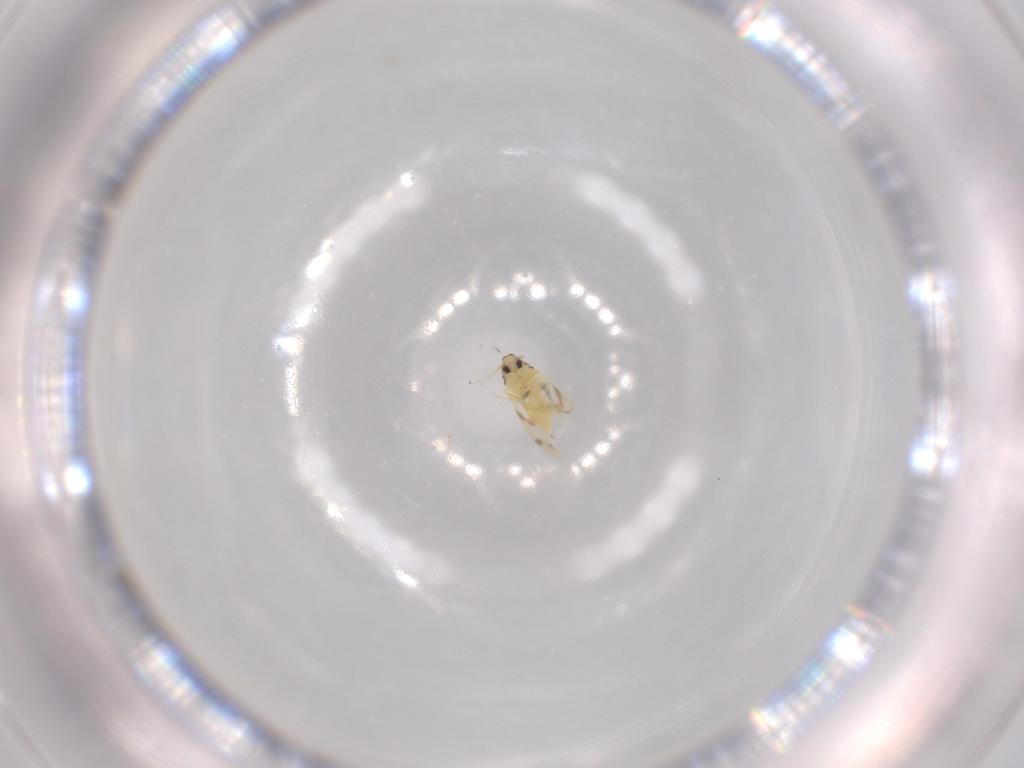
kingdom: Animalia
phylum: Arthropoda
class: Insecta
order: Hemiptera
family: Aleyrodidae
